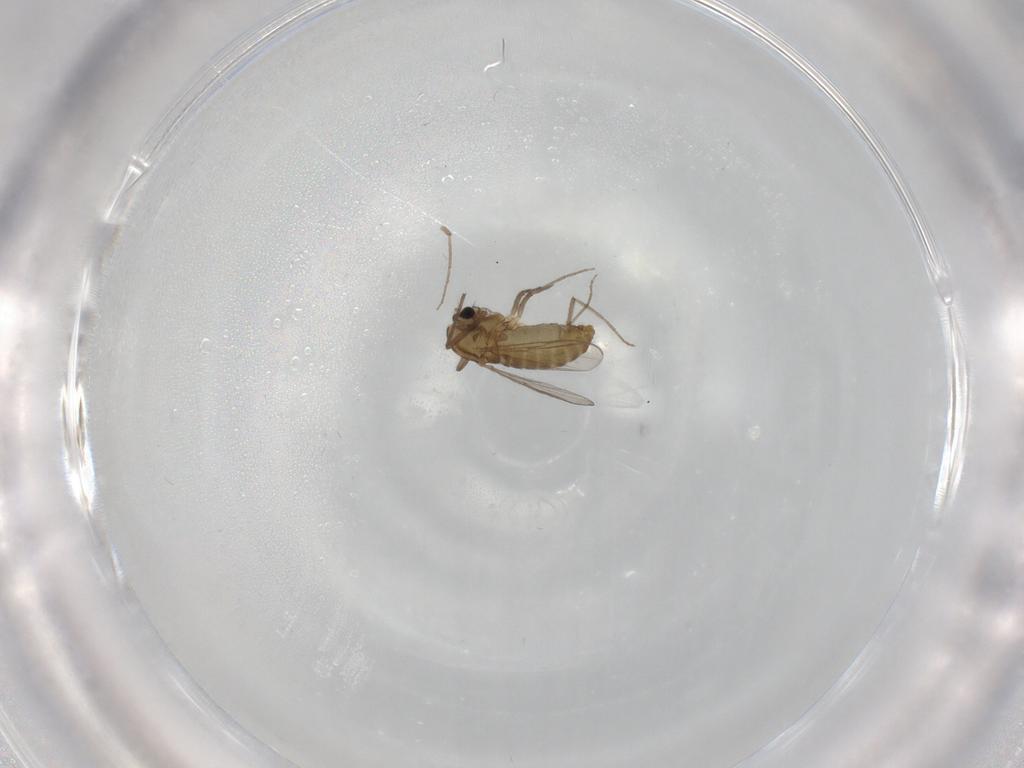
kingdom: Animalia
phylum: Arthropoda
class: Insecta
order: Diptera
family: Chironomidae
